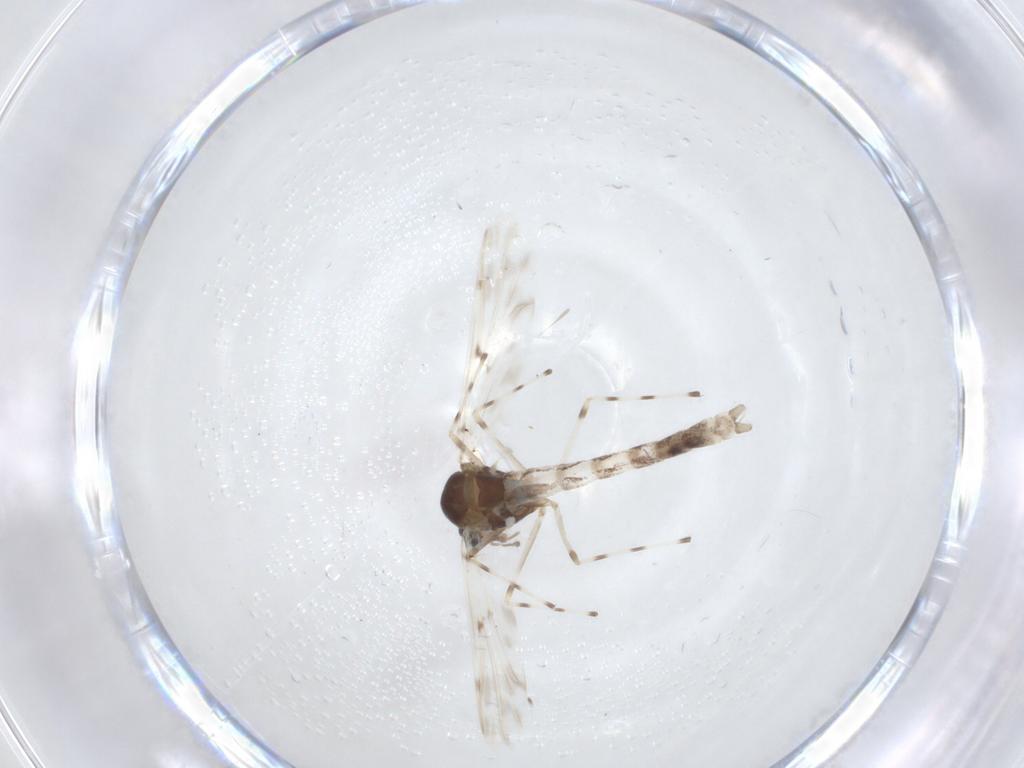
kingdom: Animalia
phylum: Arthropoda
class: Insecta
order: Diptera
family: Chironomidae
